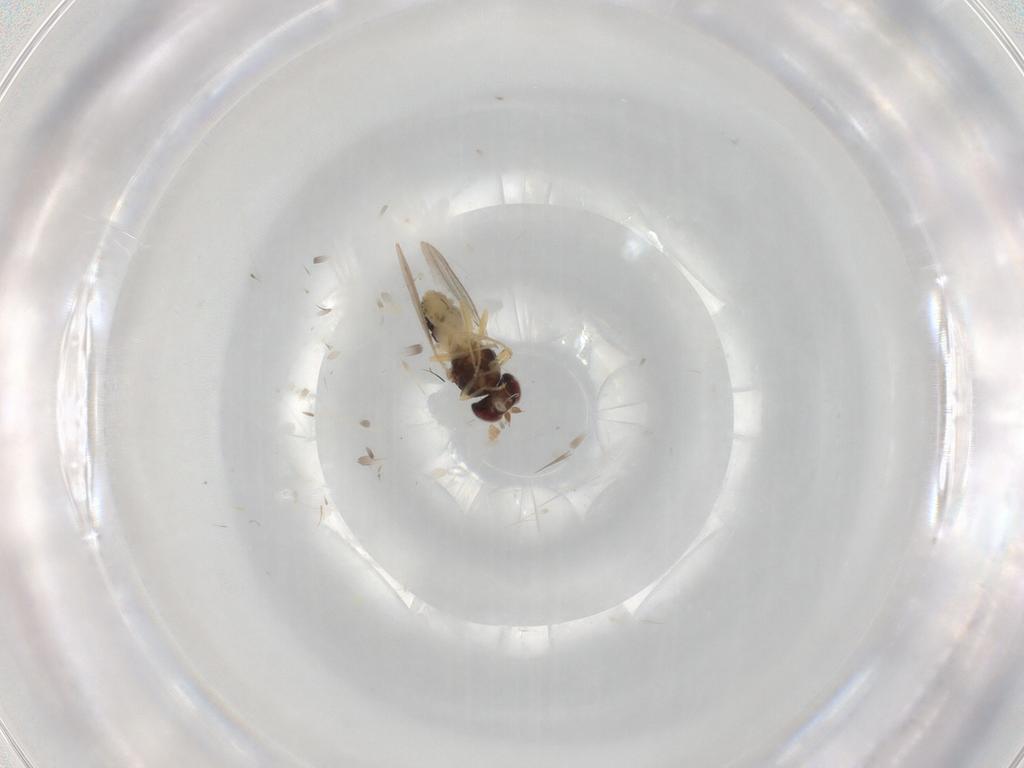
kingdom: Animalia
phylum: Arthropoda
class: Insecta
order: Diptera
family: Asteiidae
